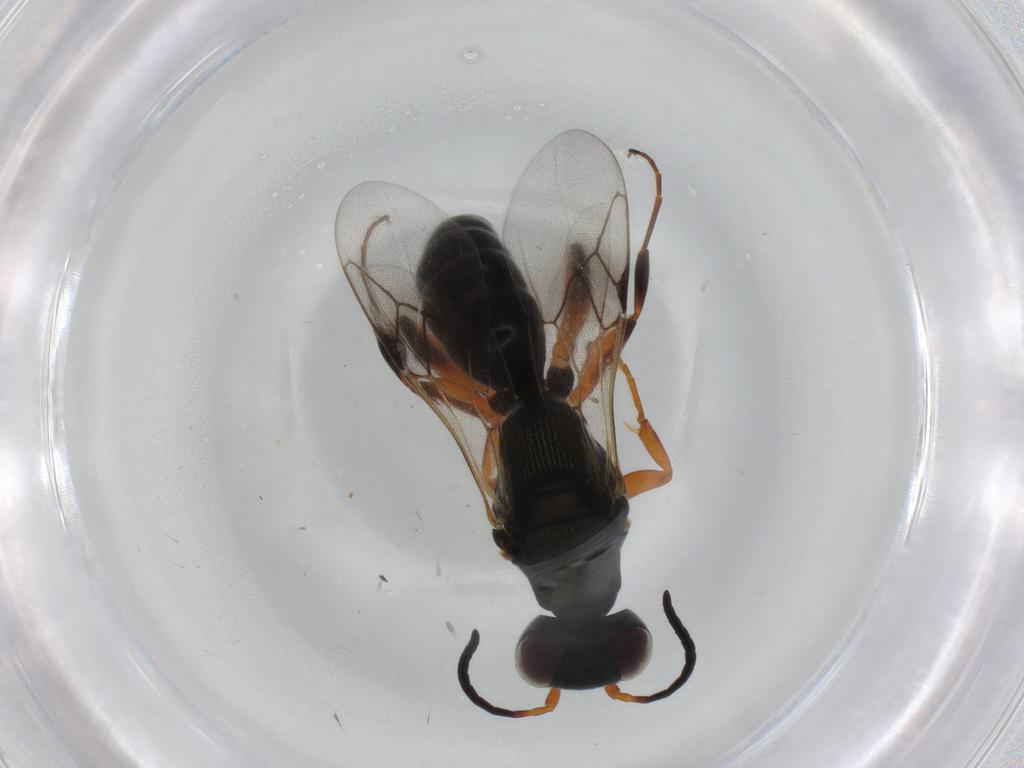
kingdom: Animalia
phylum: Arthropoda
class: Insecta
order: Hymenoptera
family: Crabronidae
